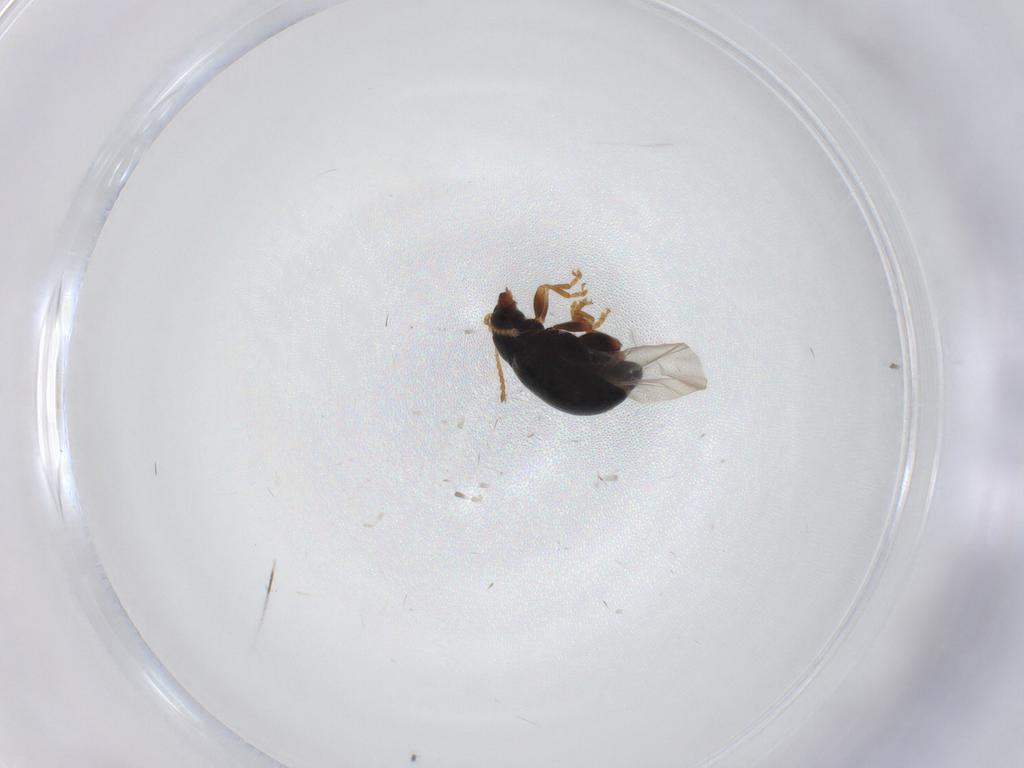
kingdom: Animalia
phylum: Arthropoda
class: Insecta
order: Coleoptera
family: Chrysomelidae
